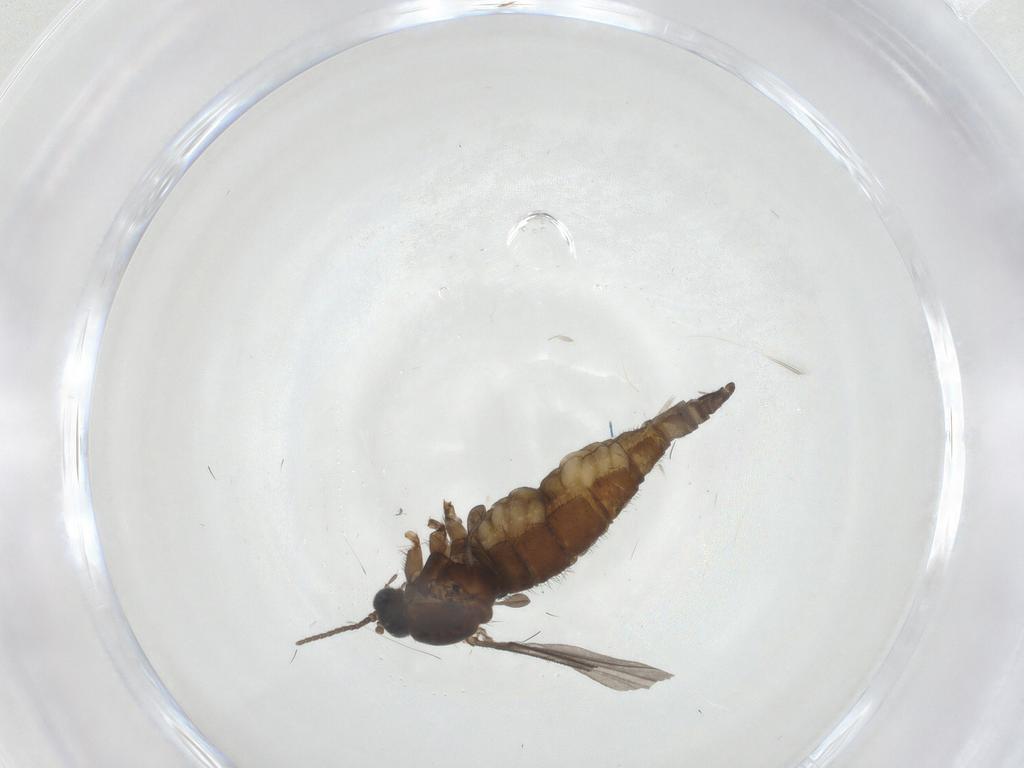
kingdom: Animalia
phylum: Arthropoda
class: Insecta
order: Diptera
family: Sciaridae
